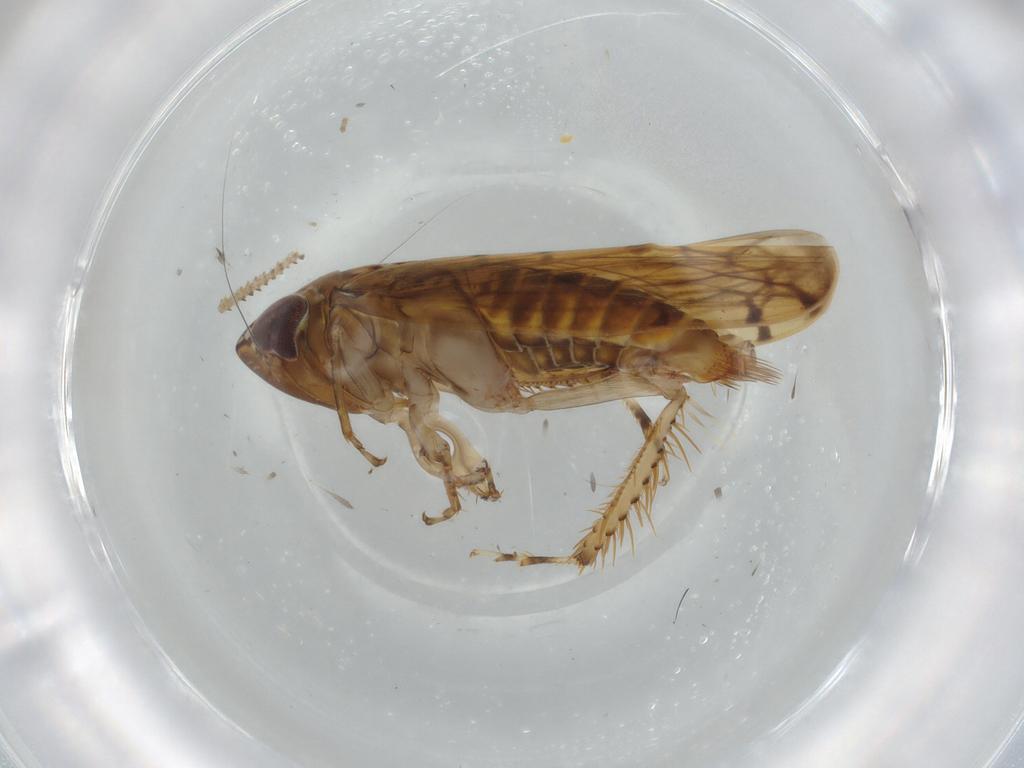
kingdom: Animalia
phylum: Arthropoda
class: Insecta
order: Hemiptera
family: Cicadellidae
